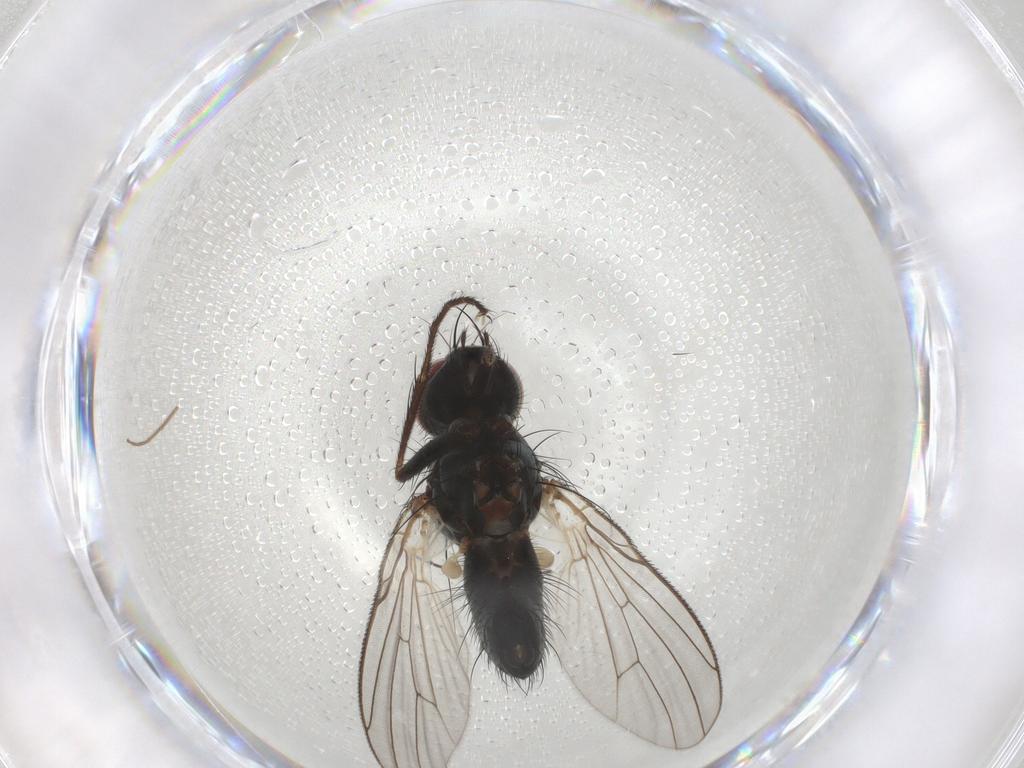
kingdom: Animalia
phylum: Arthropoda
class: Insecta
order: Diptera
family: Muscidae
